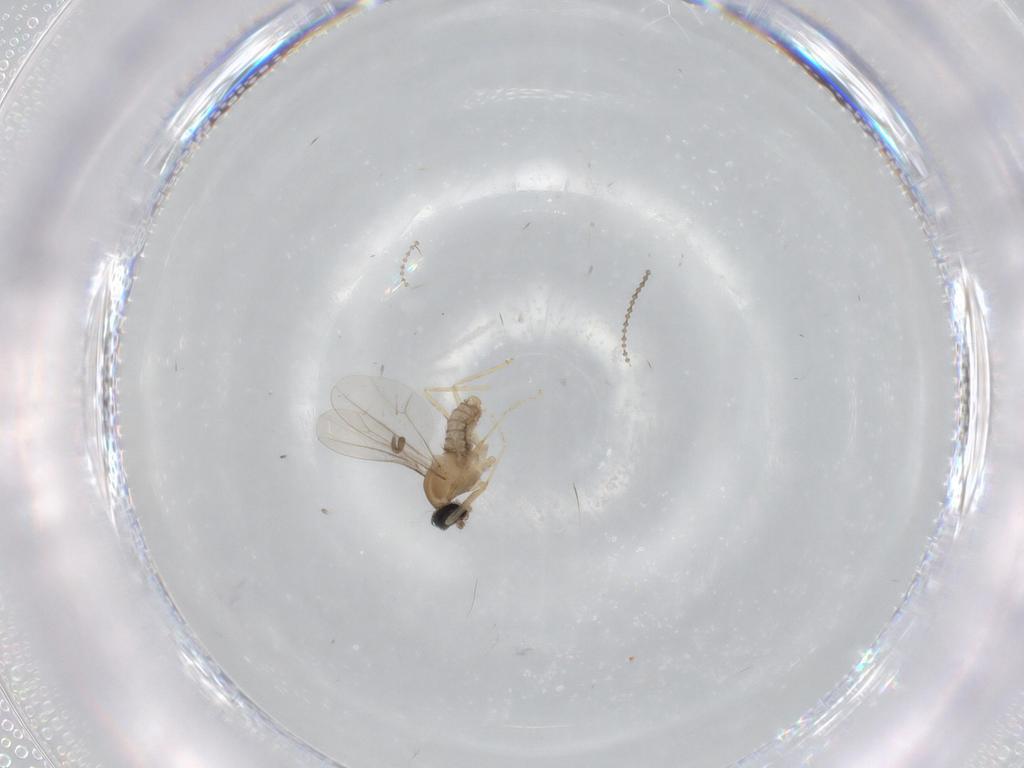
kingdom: Animalia
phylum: Arthropoda
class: Insecta
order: Diptera
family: Cecidomyiidae
